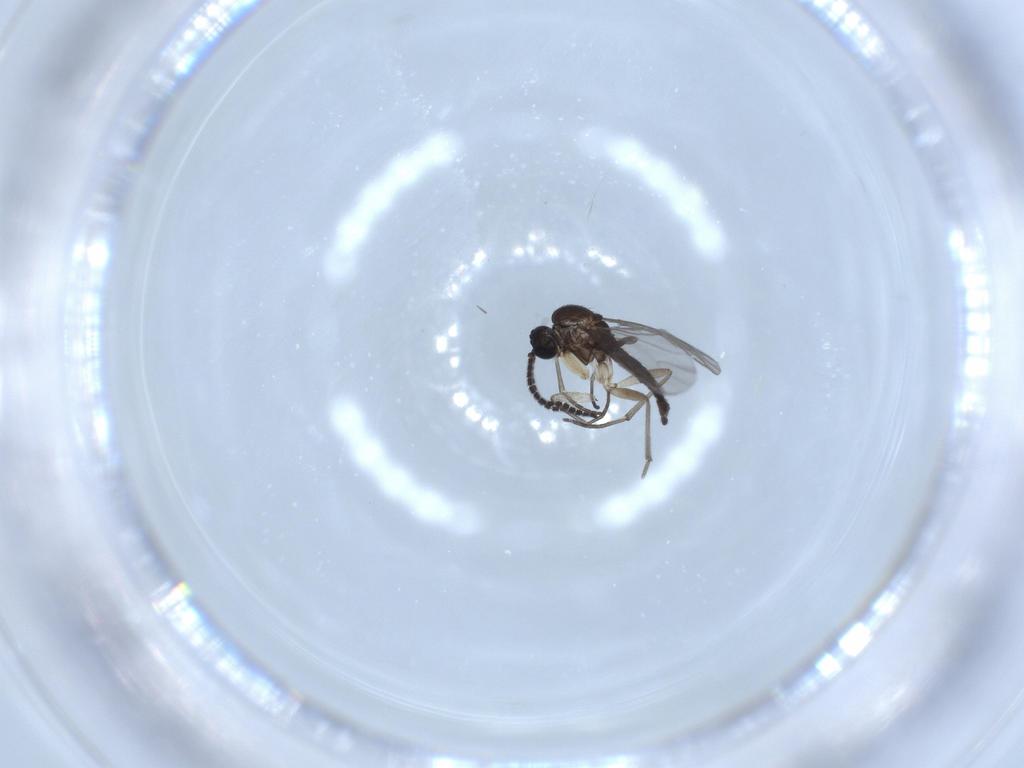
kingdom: Animalia
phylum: Arthropoda
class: Insecta
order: Diptera
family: Sciaridae
